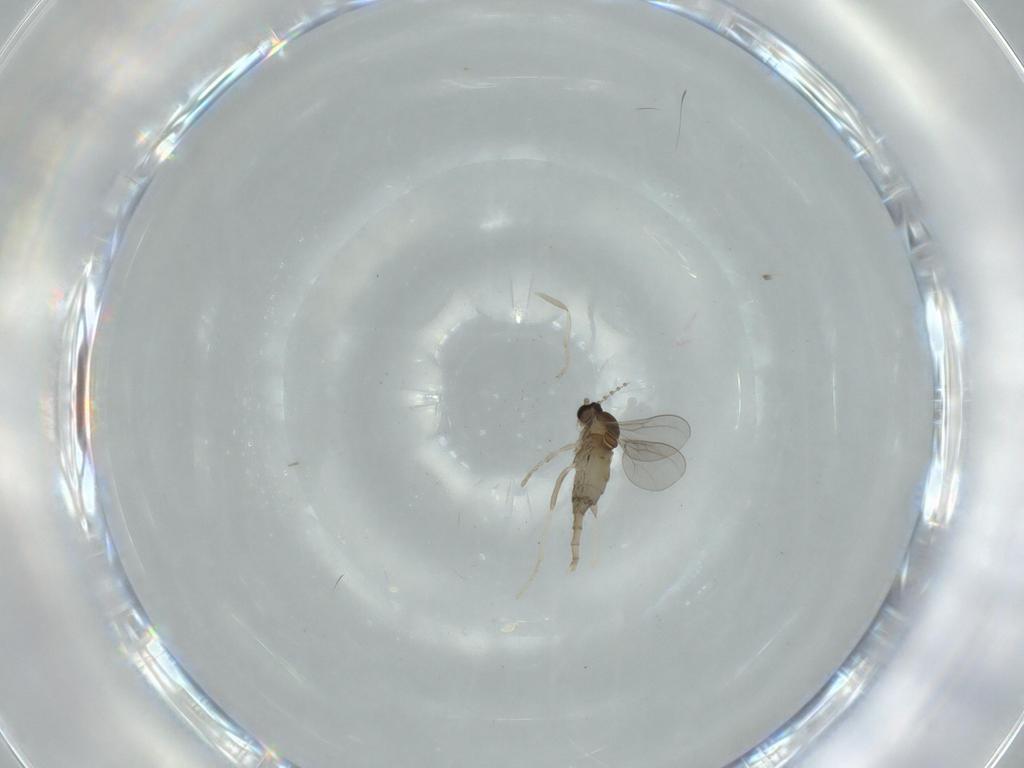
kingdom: Animalia
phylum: Arthropoda
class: Insecta
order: Diptera
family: Cecidomyiidae
